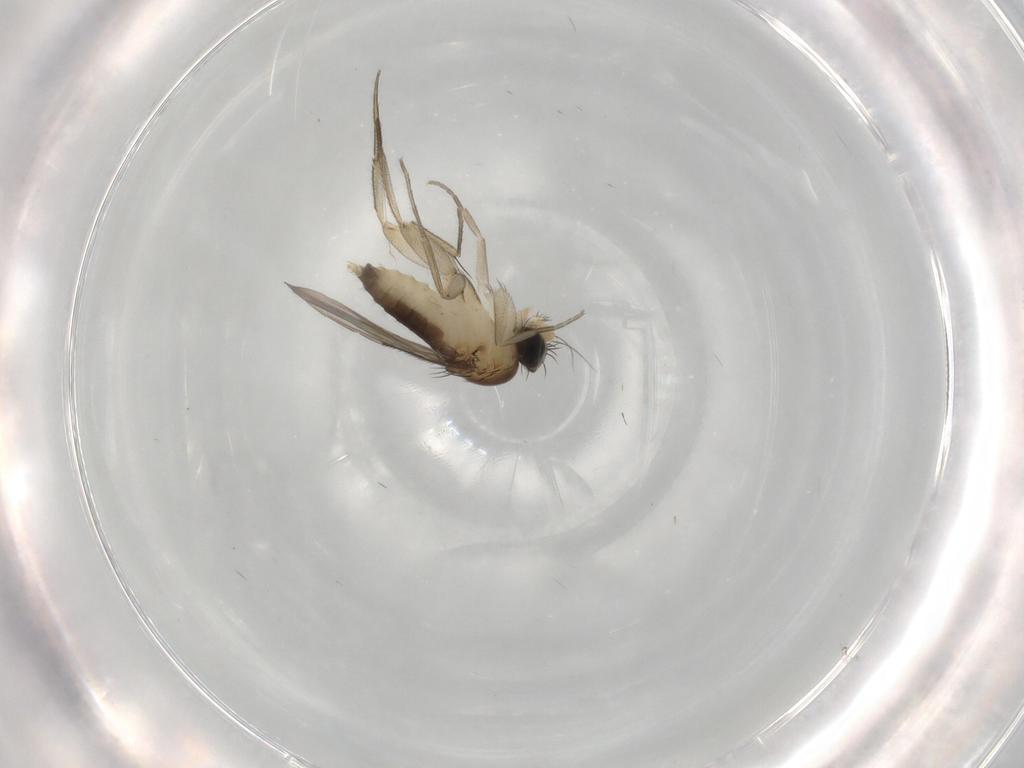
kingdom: Animalia
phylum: Arthropoda
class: Insecta
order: Diptera
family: Phoridae
